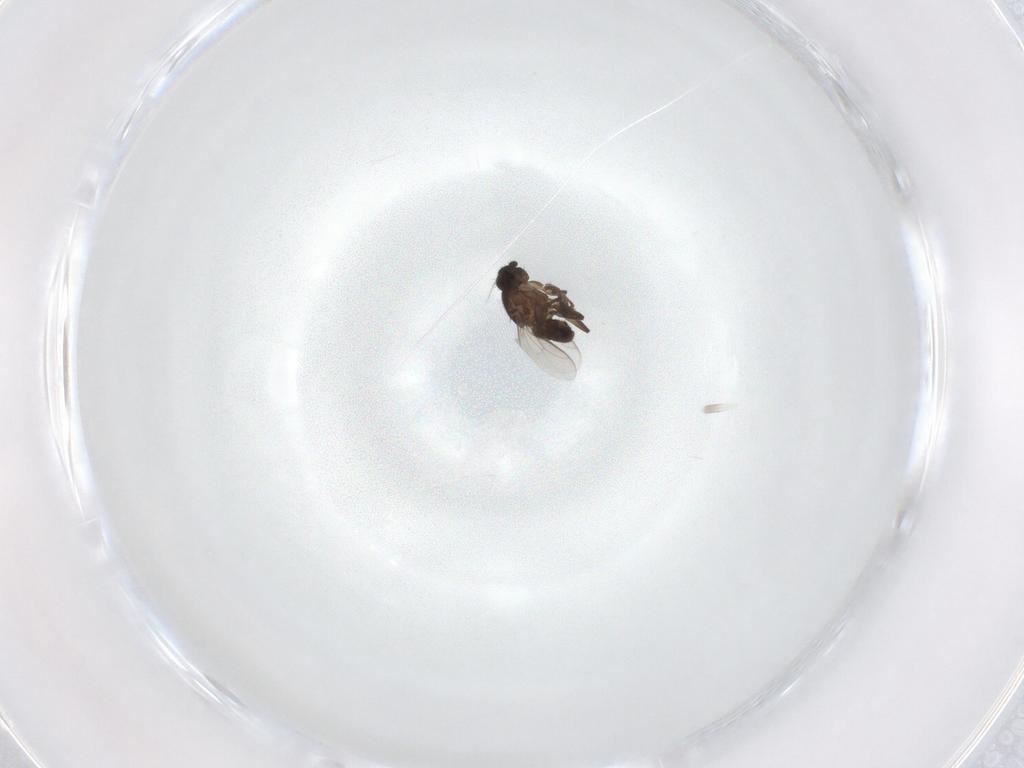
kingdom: Animalia
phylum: Arthropoda
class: Insecta
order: Diptera
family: Sphaeroceridae
